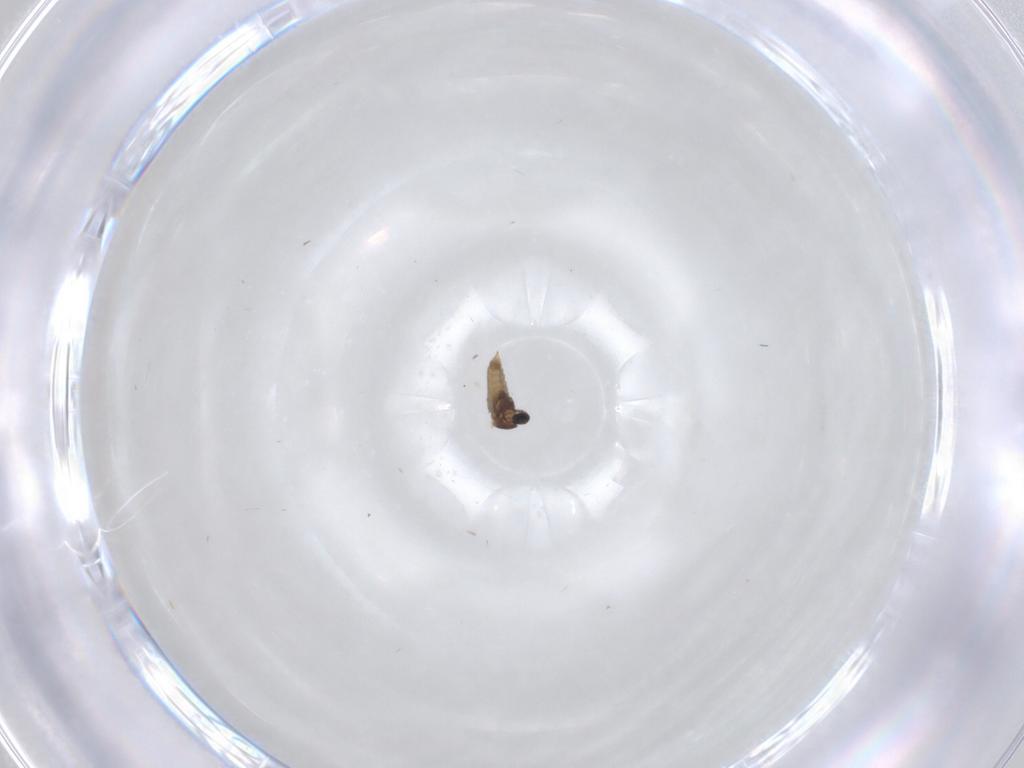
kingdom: Animalia
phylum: Arthropoda
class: Insecta
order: Diptera
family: Cecidomyiidae
